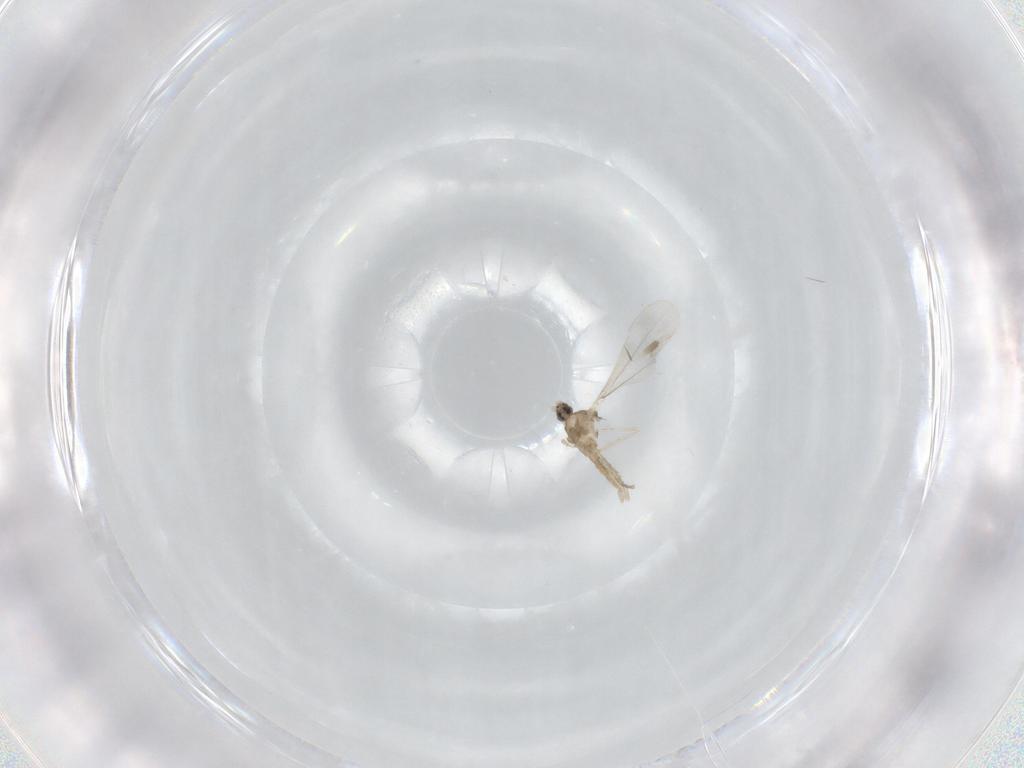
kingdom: Animalia
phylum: Arthropoda
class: Insecta
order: Diptera
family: Cecidomyiidae
